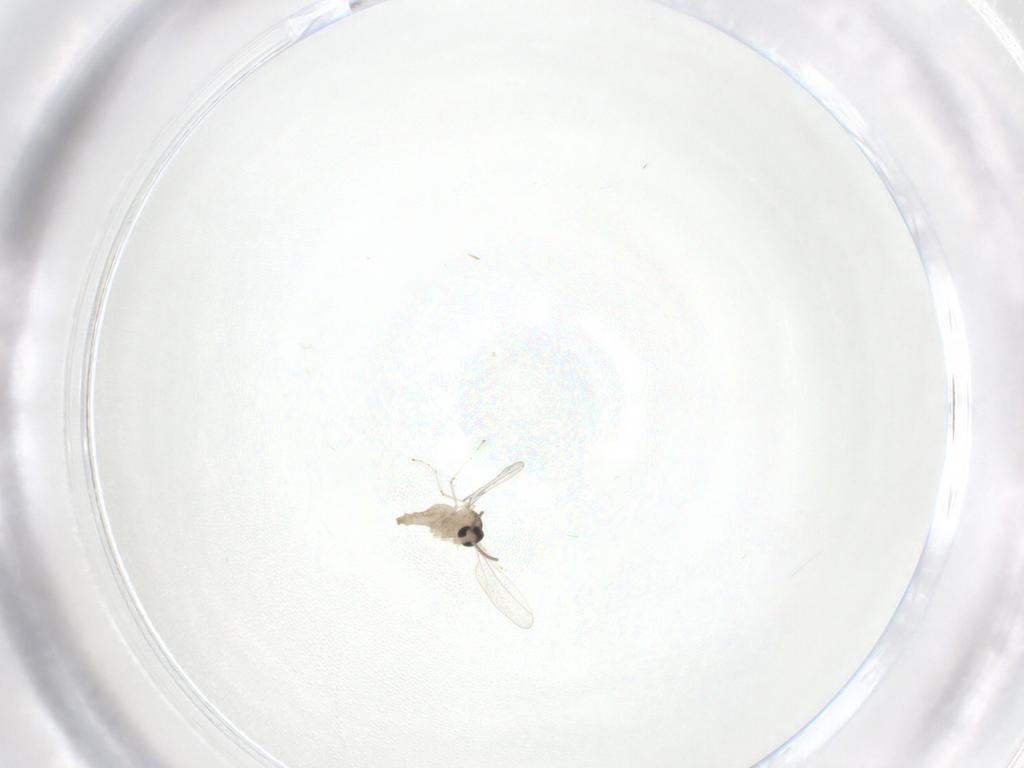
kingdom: Animalia
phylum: Arthropoda
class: Insecta
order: Diptera
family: Cecidomyiidae
